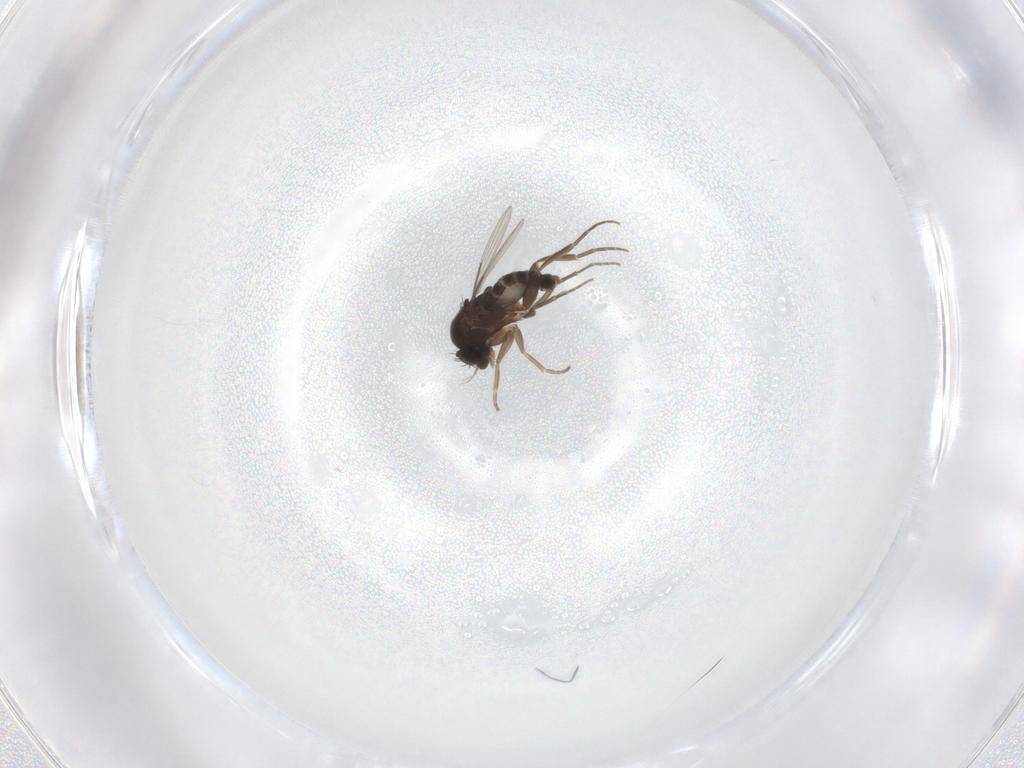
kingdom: Animalia
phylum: Arthropoda
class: Insecta
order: Diptera
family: Phoridae
